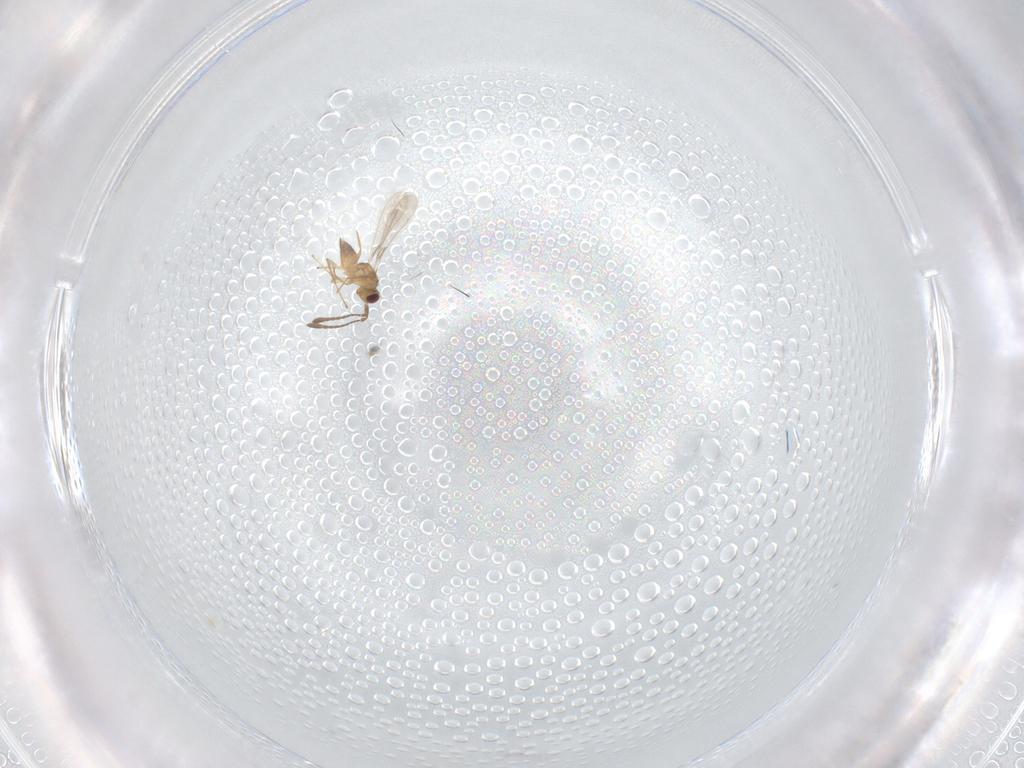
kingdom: Animalia
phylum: Arthropoda
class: Insecta
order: Hymenoptera
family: Mymaridae
